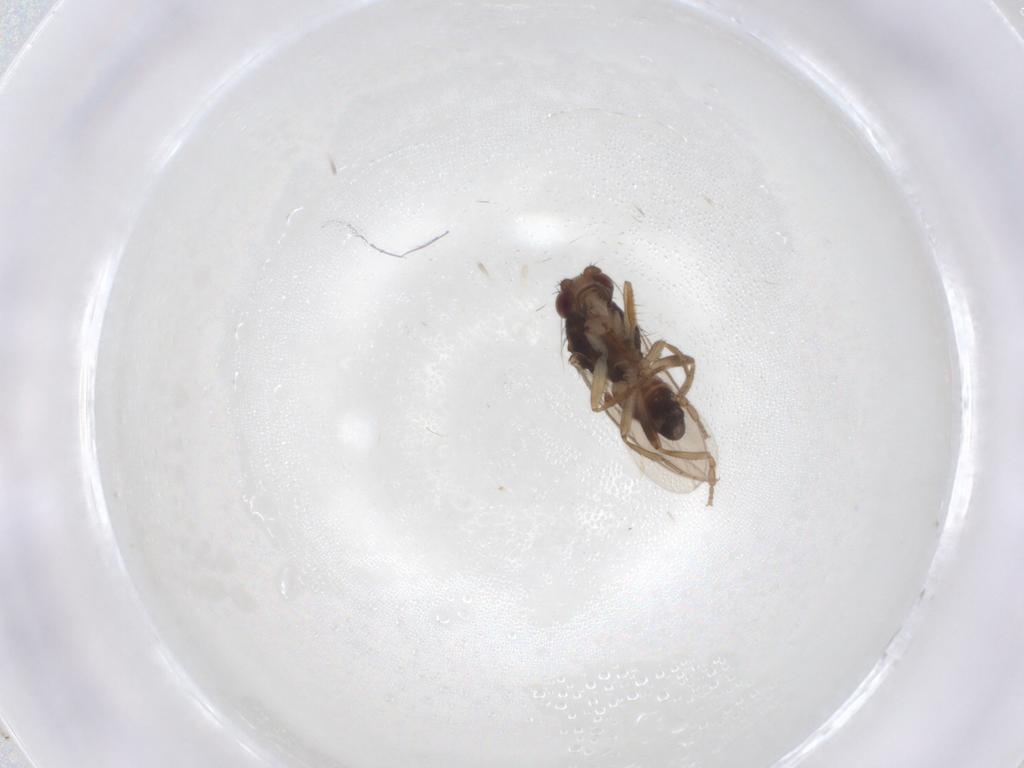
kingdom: Animalia
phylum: Arthropoda
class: Insecta
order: Diptera
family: Sphaeroceridae
